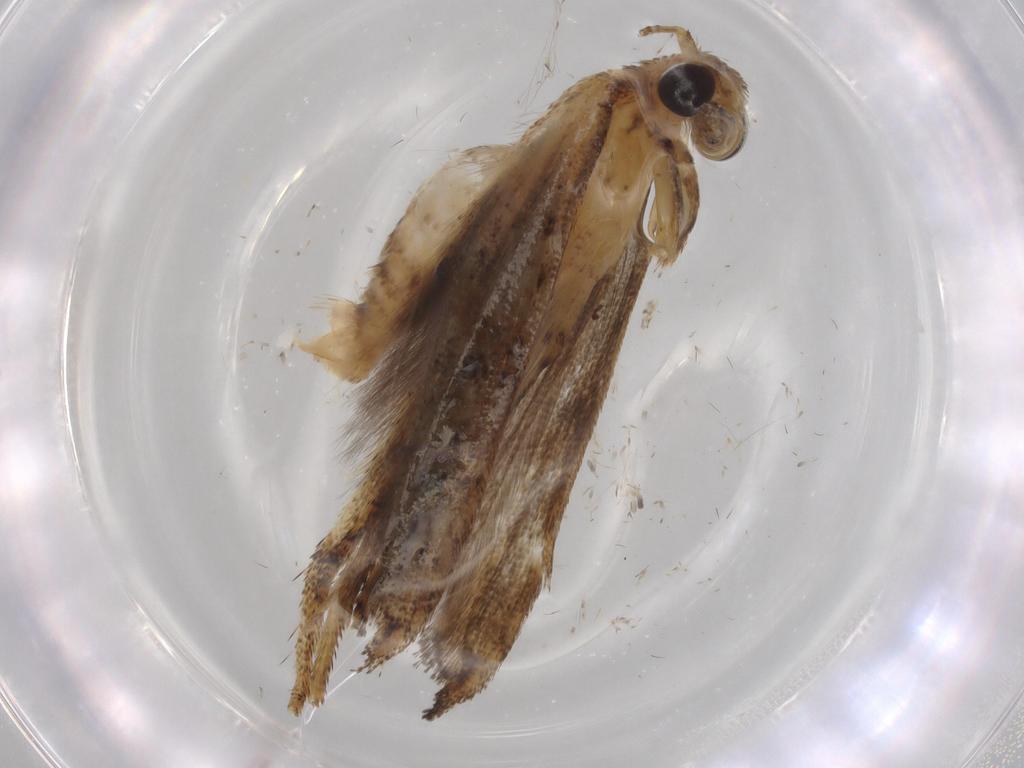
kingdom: Animalia
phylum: Arthropoda
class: Insecta
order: Lepidoptera
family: Gelechiidae
